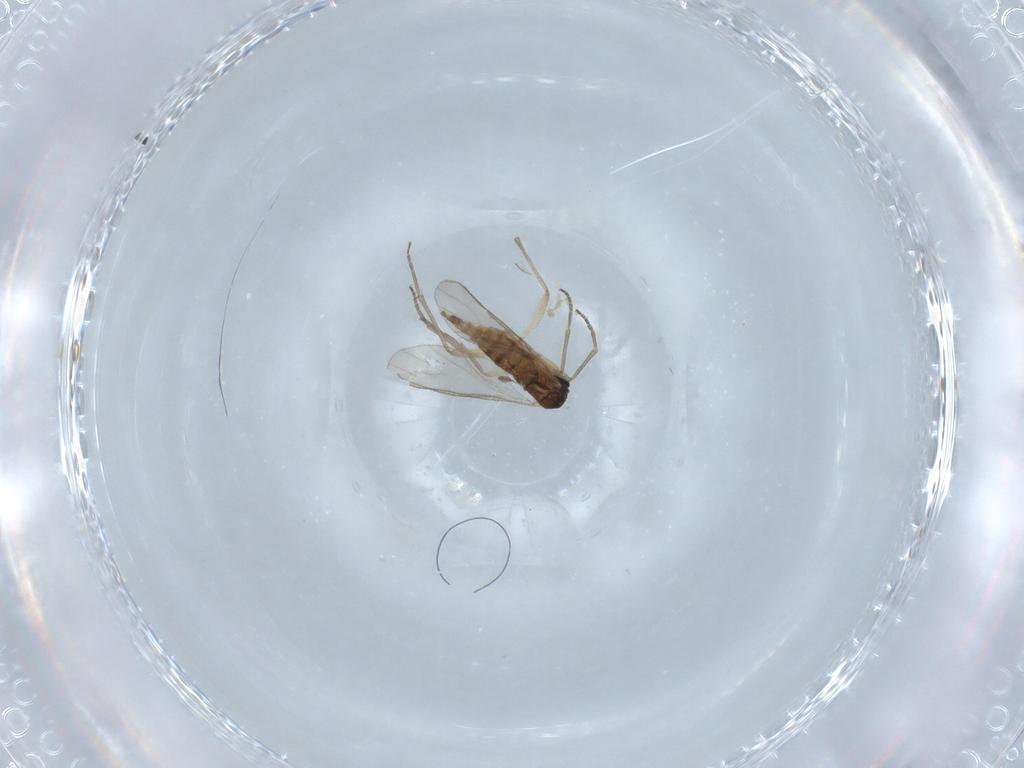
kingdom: Animalia
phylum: Arthropoda
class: Insecta
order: Diptera
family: Sciaridae
